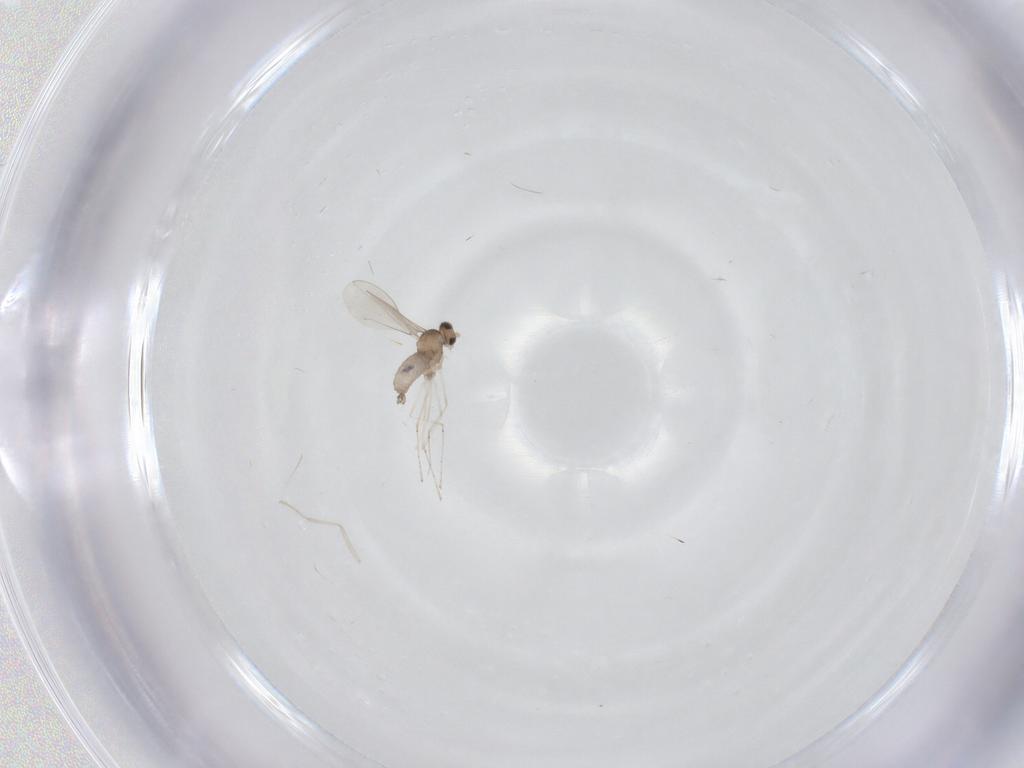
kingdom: Animalia
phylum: Arthropoda
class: Insecta
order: Diptera
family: Cecidomyiidae
